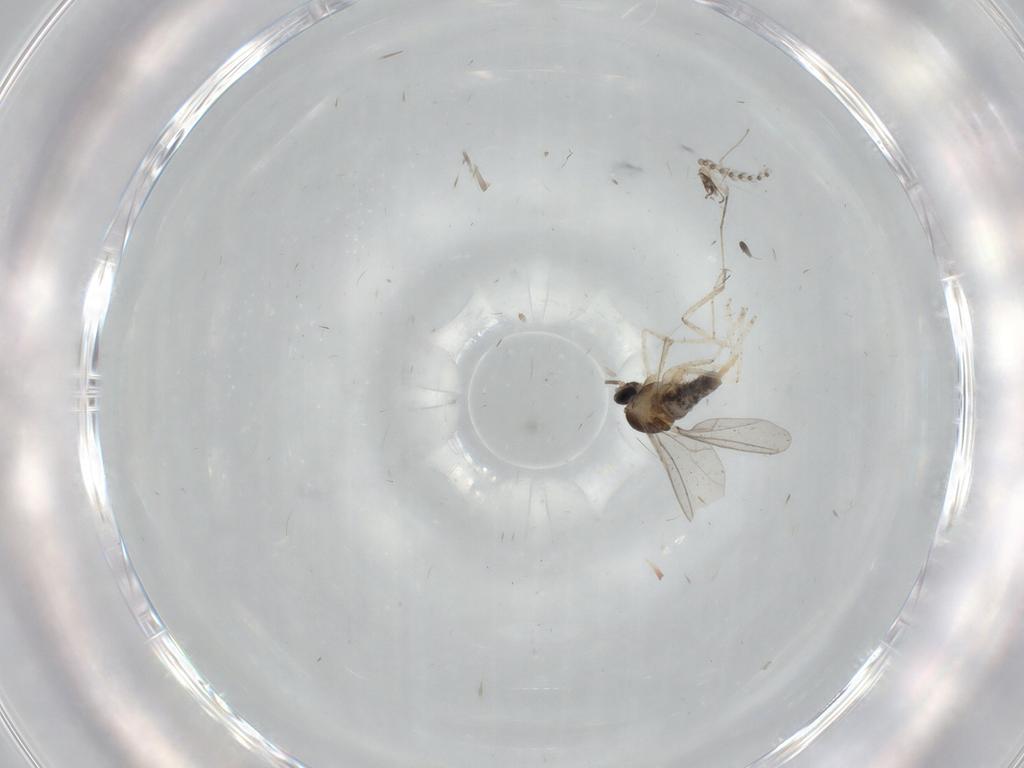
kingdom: Animalia
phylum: Arthropoda
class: Insecta
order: Diptera
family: Cecidomyiidae
